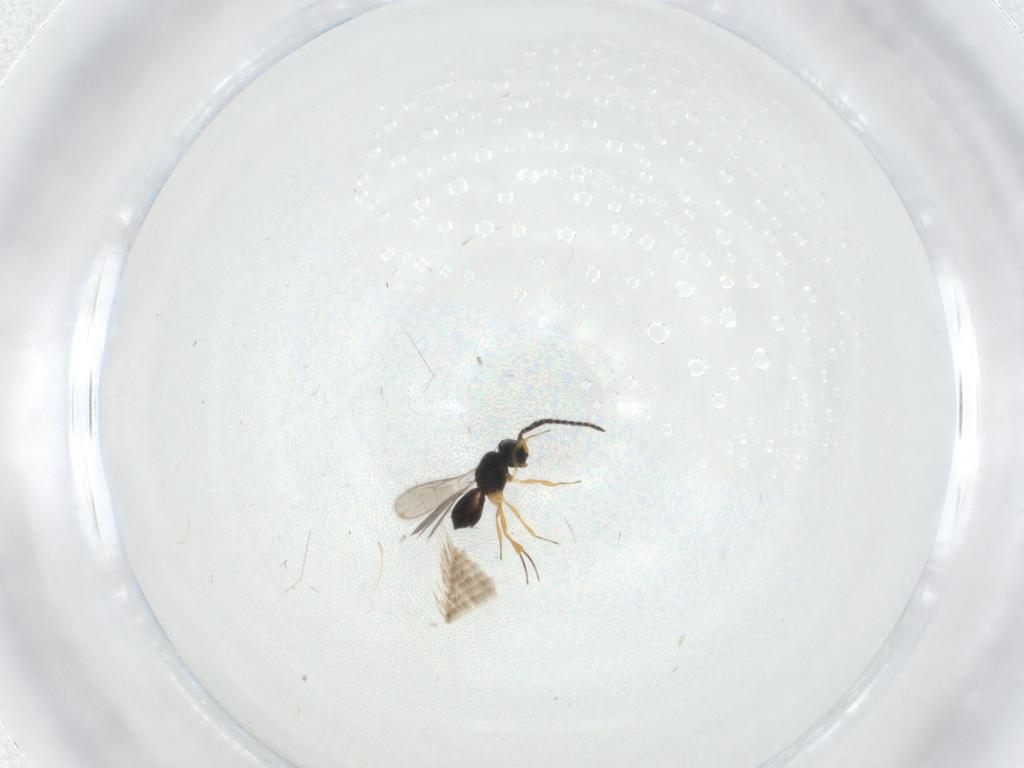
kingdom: Animalia
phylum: Arthropoda
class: Insecta
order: Hymenoptera
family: Scelionidae
